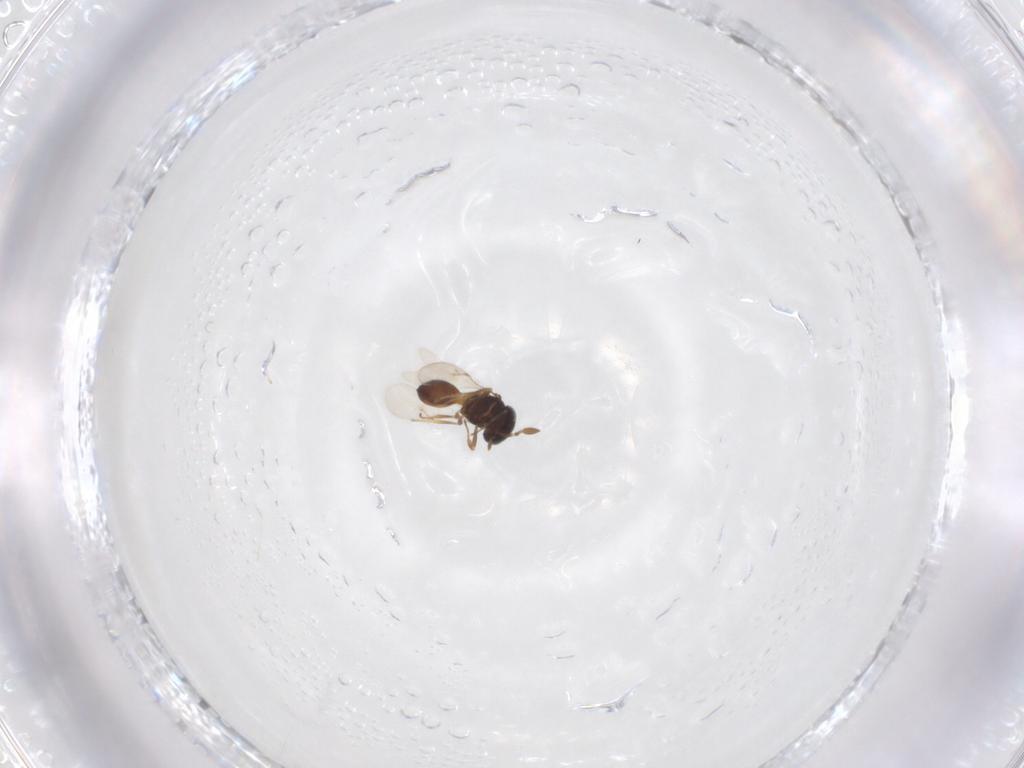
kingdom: Animalia
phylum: Arthropoda
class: Insecta
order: Hymenoptera
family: Scelionidae
